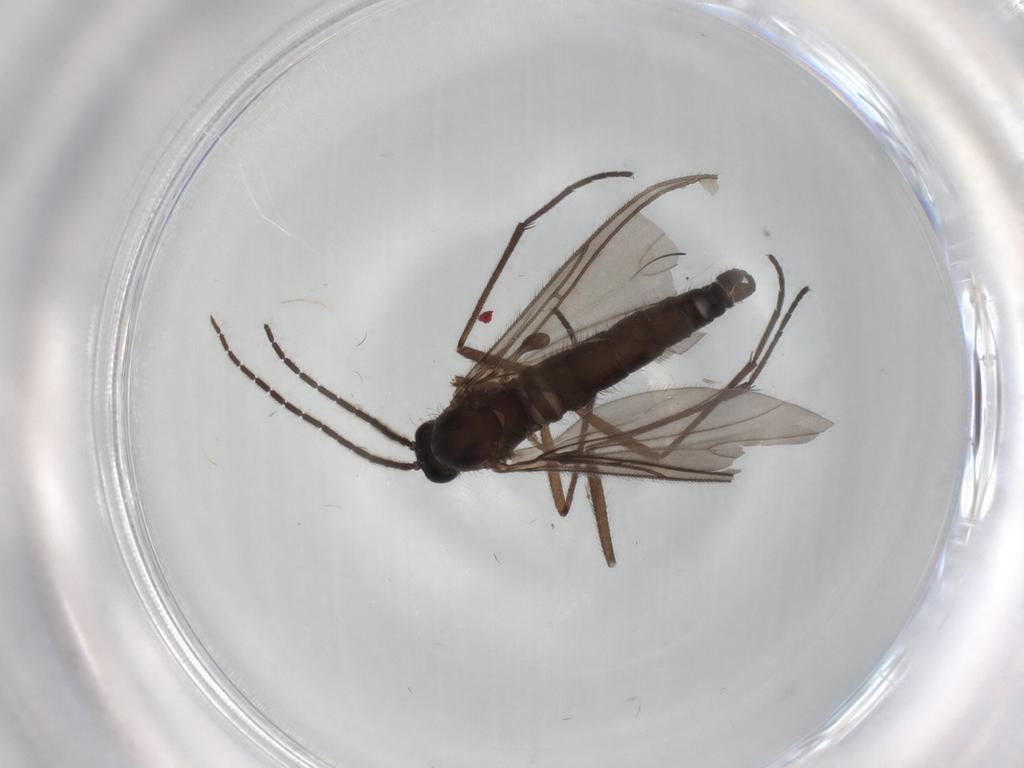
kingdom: Animalia
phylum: Arthropoda
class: Insecta
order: Diptera
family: Sciaridae
